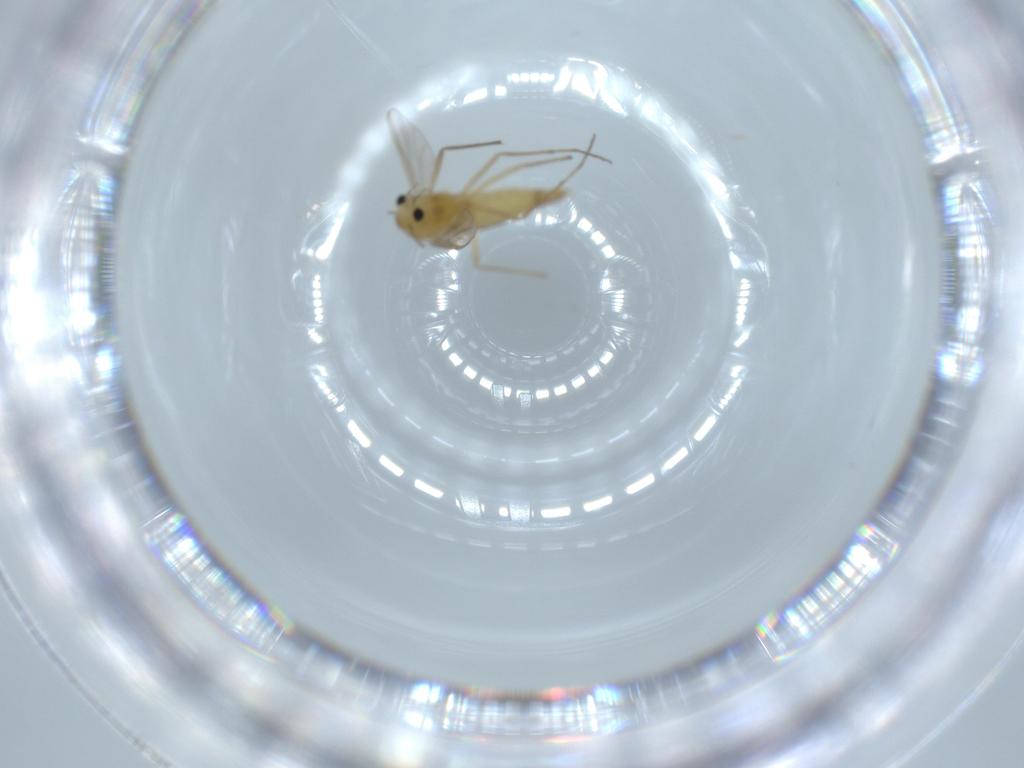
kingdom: Animalia
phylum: Arthropoda
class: Insecta
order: Diptera
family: Chironomidae
